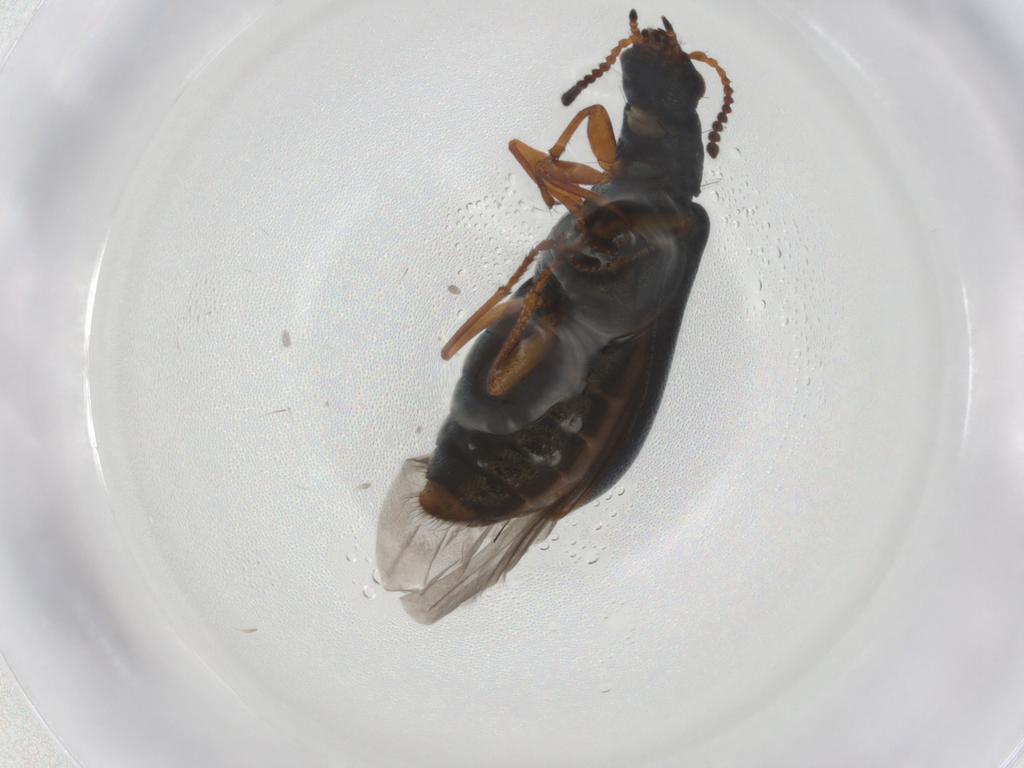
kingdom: Animalia
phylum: Arthropoda
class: Insecta
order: Coleoptera
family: Melyridae
